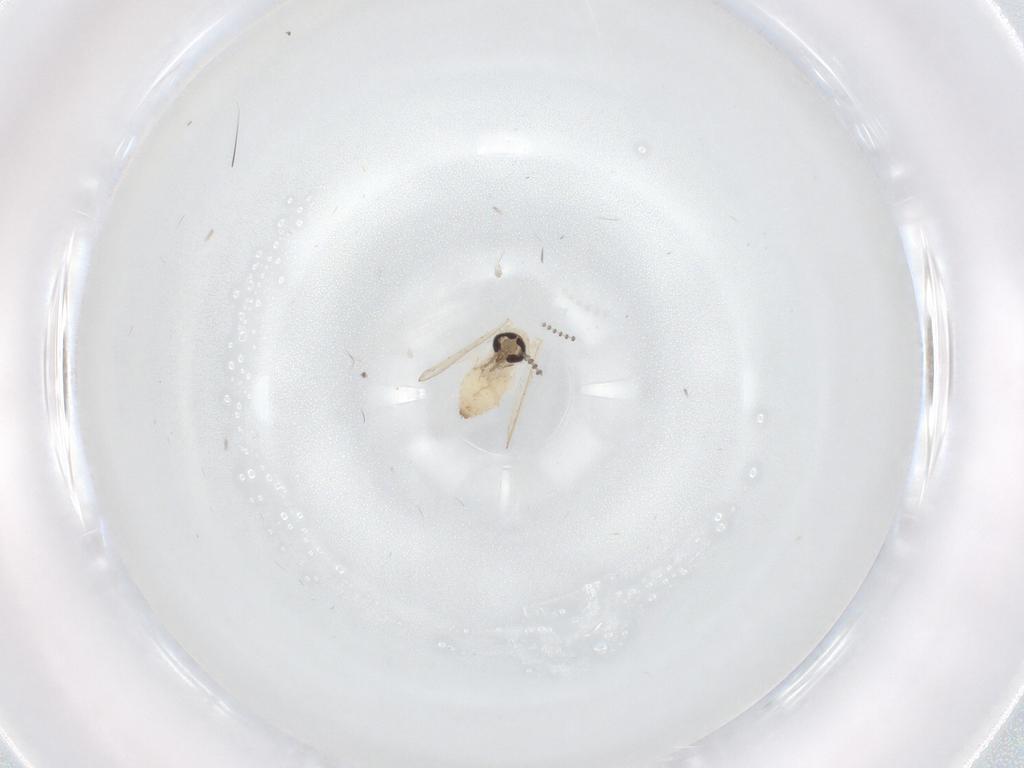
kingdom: Animalia
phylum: Arthropoda
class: Insecta
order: Diptera
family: Psychodidae
